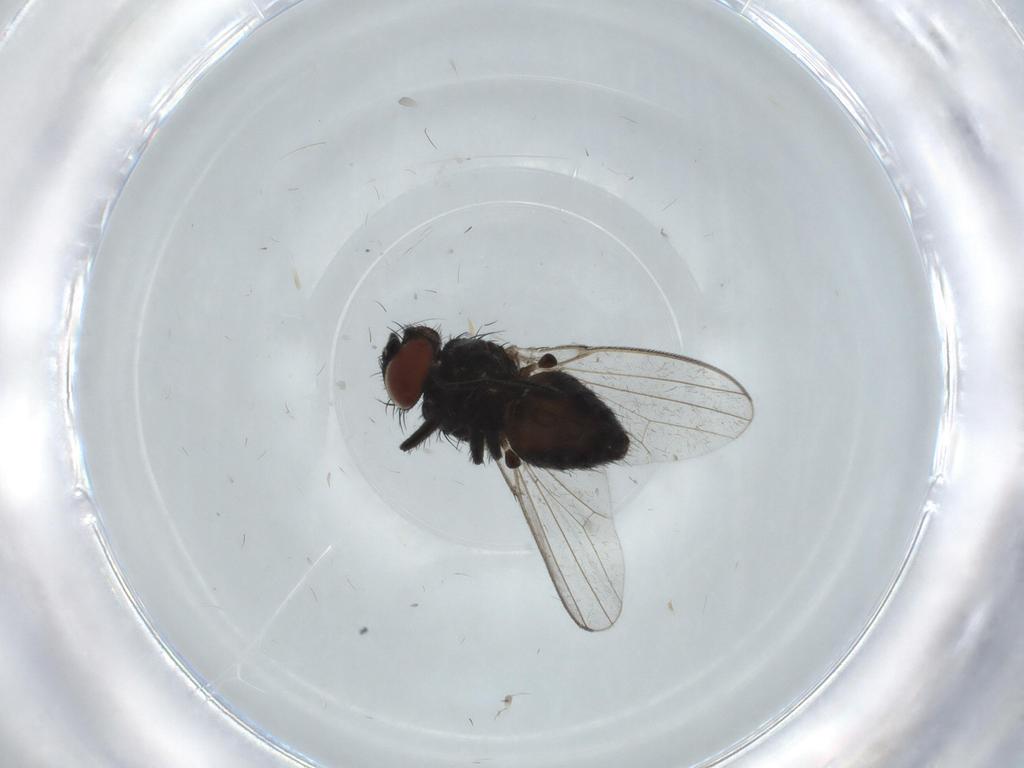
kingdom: Animalia
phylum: Arthropoda
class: Insecta
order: Diptera
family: Milichiidae
